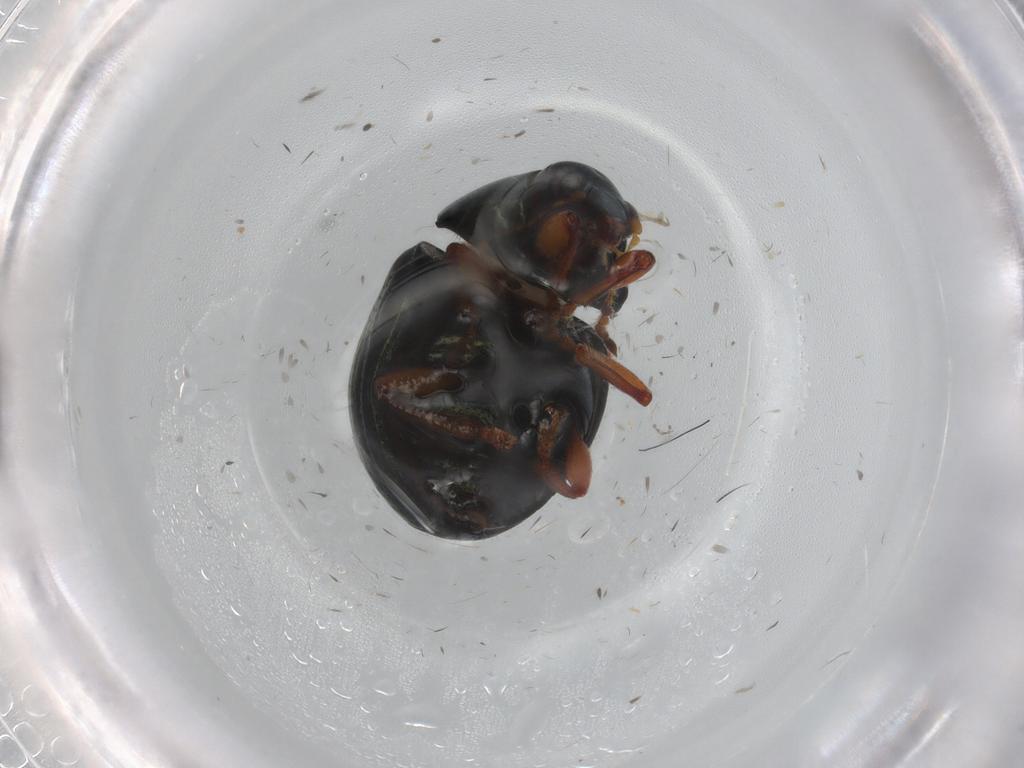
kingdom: Animalia
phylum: Arthropoda
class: Insecta
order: Coleoptera
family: Chrysomelidae
